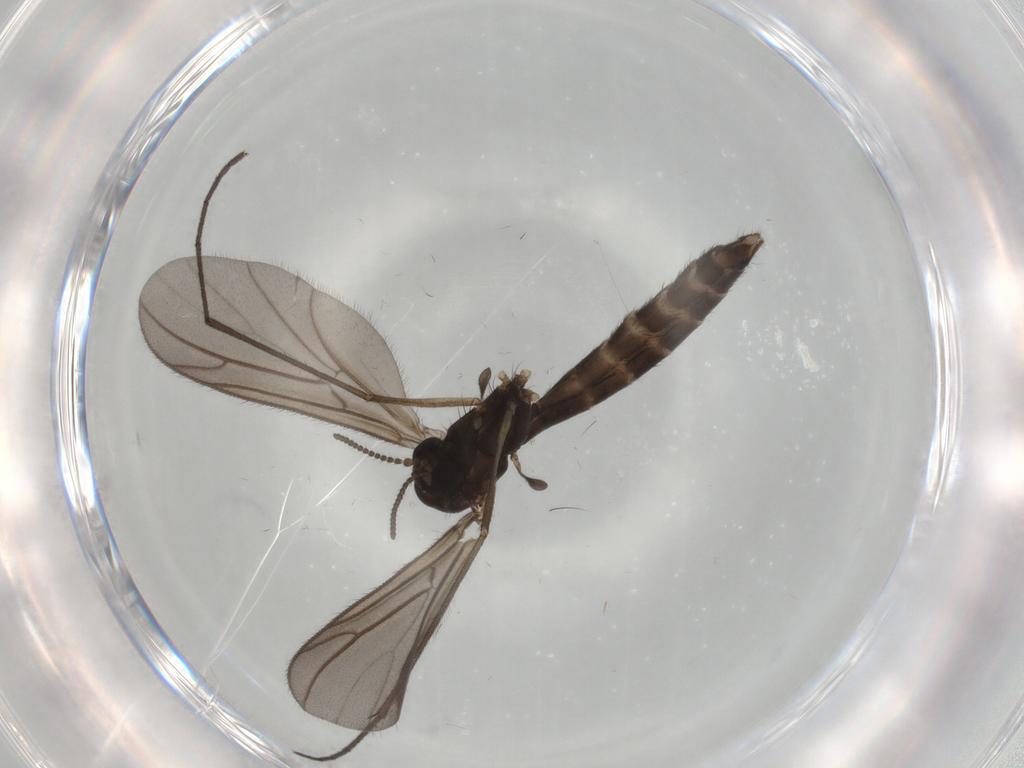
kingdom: Animalia
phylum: Arthropoda
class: Insecta
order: Diptera
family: Ditomyiidae
